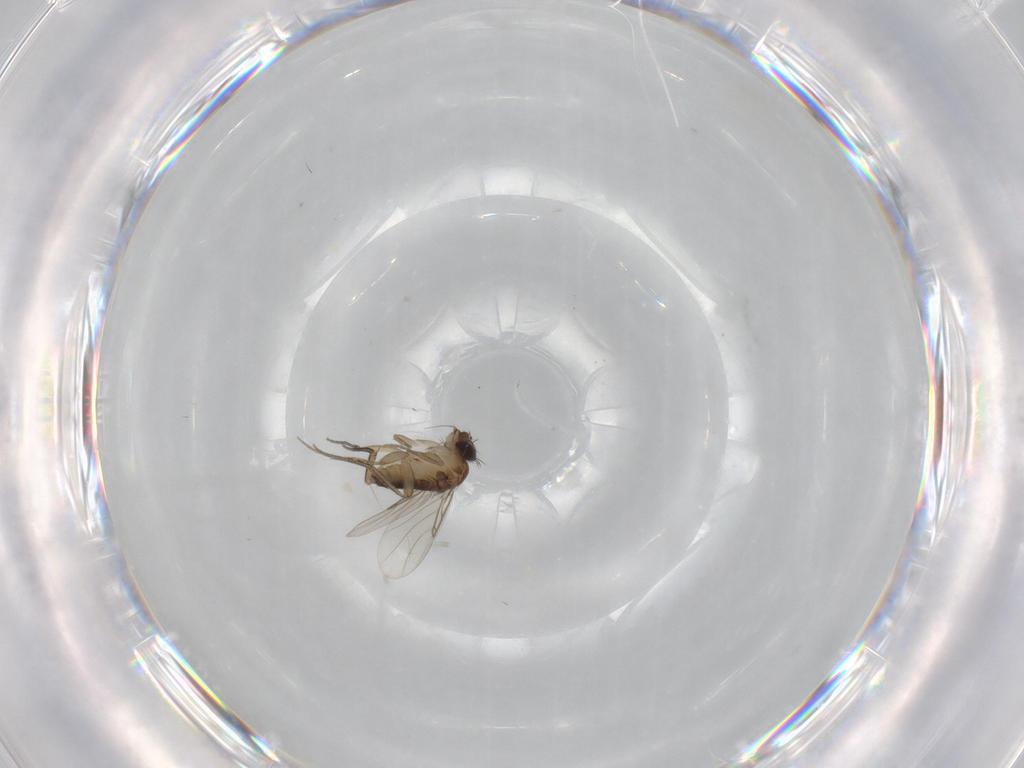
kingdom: Animalia
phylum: Arthropoda
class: Insecta
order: Diptera
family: Phoridae
